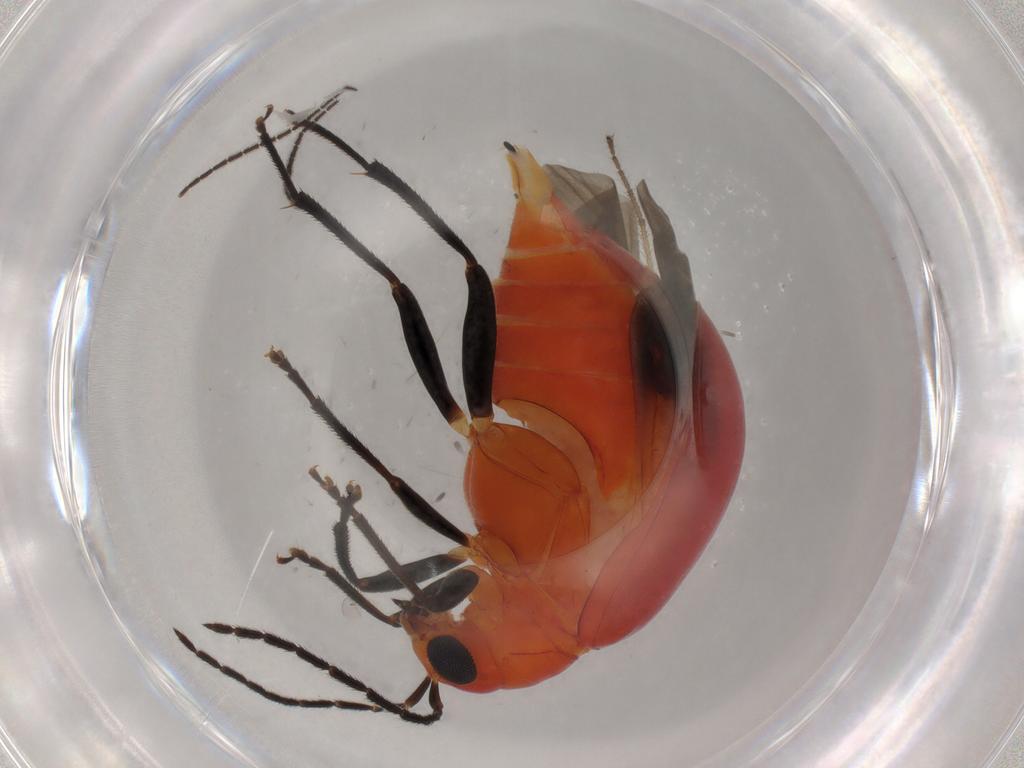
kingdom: Animalia
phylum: Arthropoda
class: Insecta
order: Coleoptera
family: Chrysomelidae
